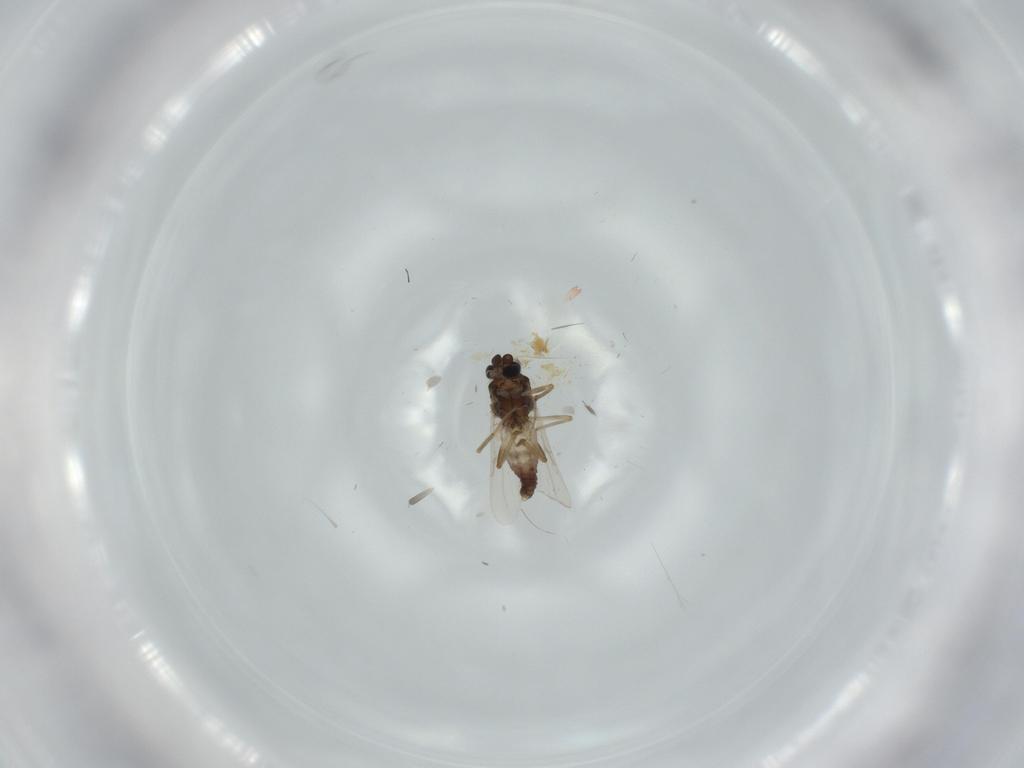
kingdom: Animalia
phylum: Arthropoda
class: Insecta
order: Diptera
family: Ceratopogonidae
